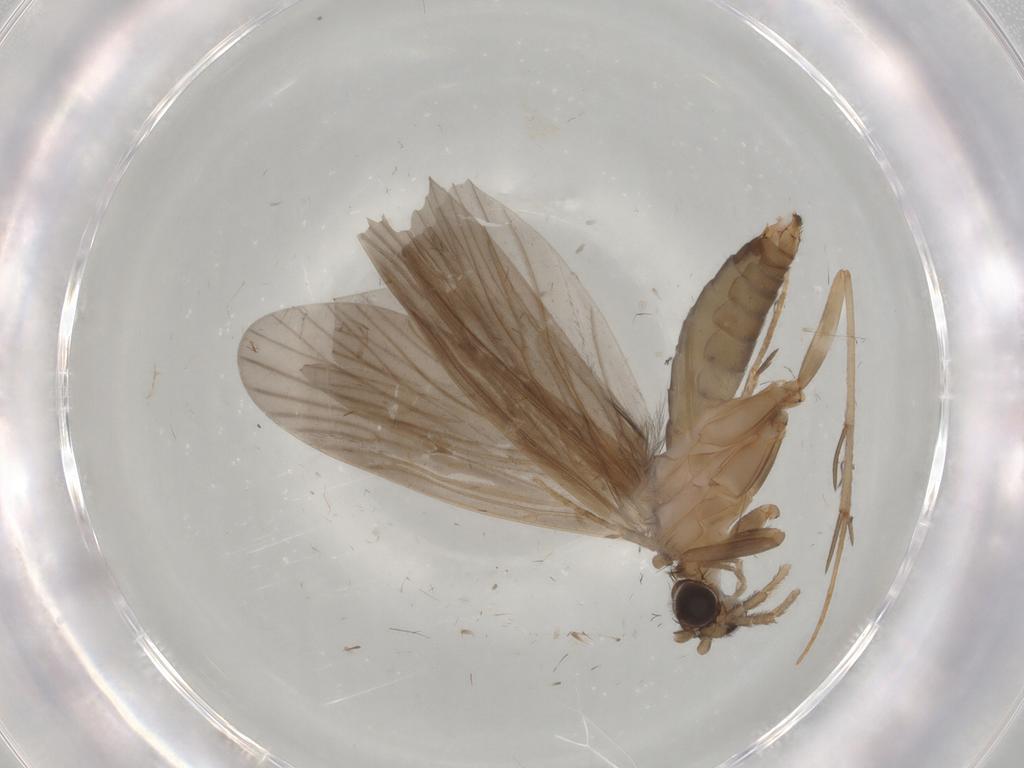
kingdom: Animalia
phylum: Arthropoda
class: Insecta
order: Trichoptera
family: Philopotamidae
